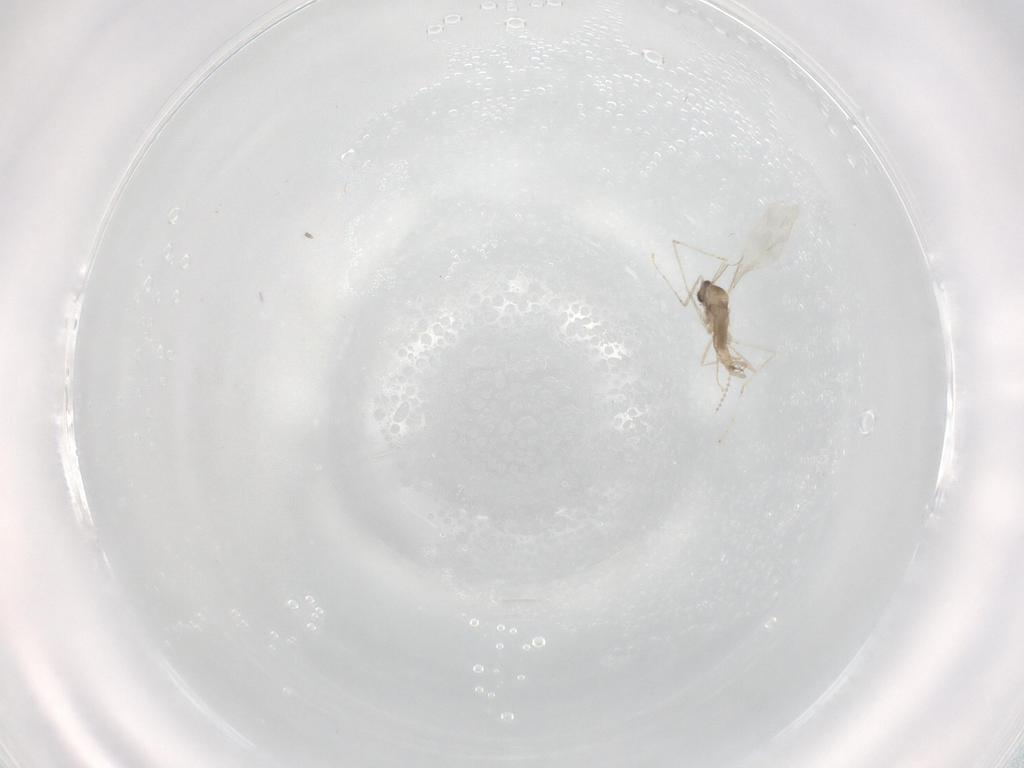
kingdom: Animalia
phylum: Arthropoda
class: Insecta
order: Diptera
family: Cecidomyiidae
